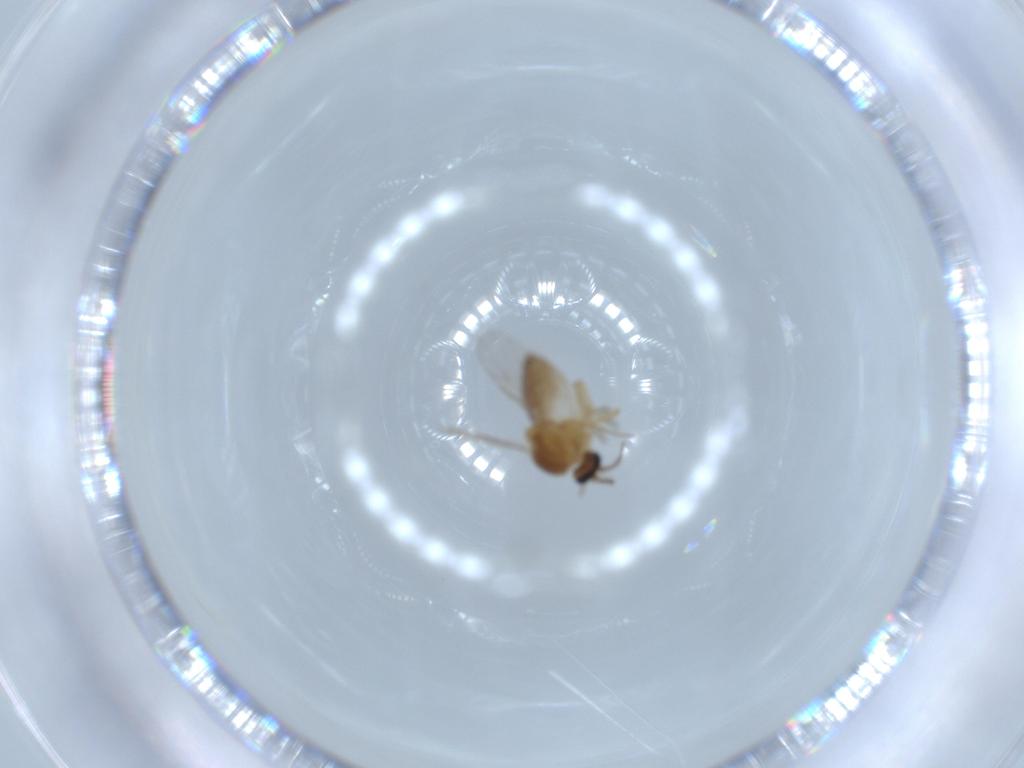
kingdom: Animalia
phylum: Arthropoda
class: Insecta
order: Diptera
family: Ceratopogonidae
